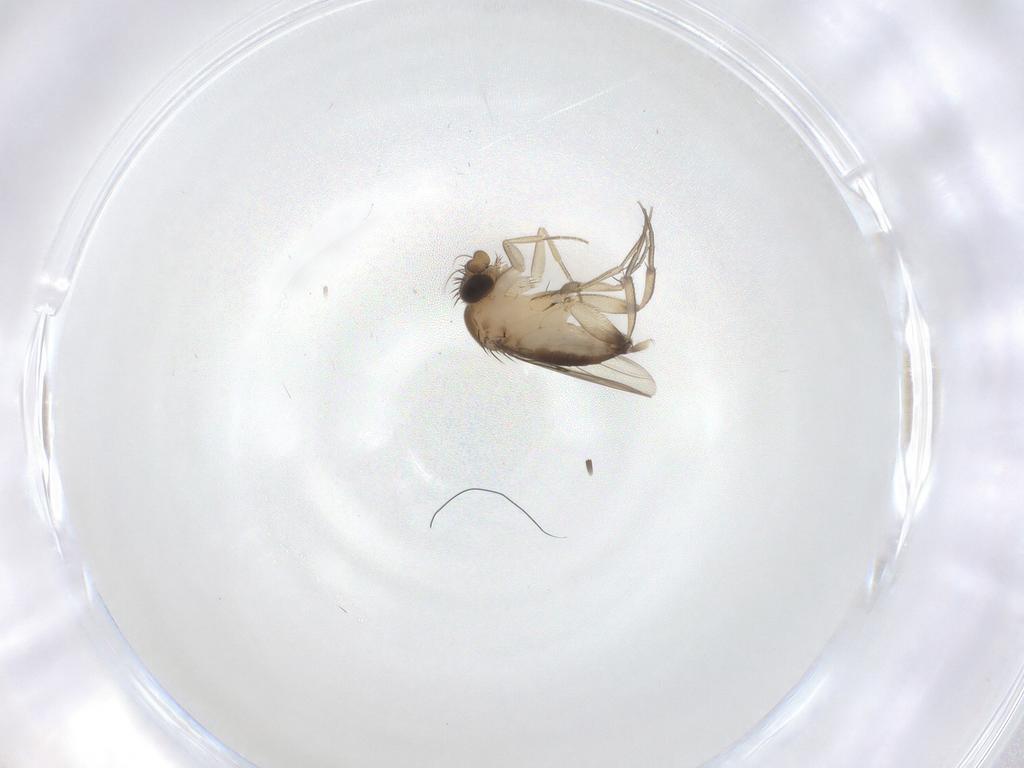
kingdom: Animalia
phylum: Arthropoda
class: Insecta
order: Diptera
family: Phoridae
